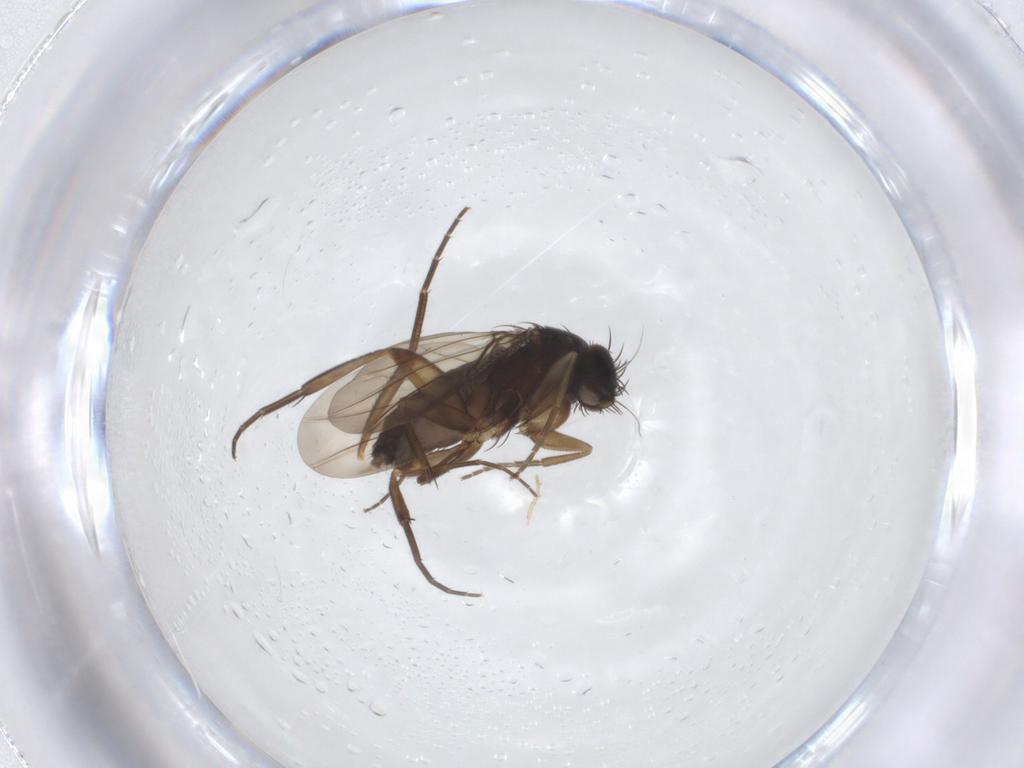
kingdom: Animalia
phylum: Arthropoda
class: Insecta
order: Diptera
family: Phoridae
